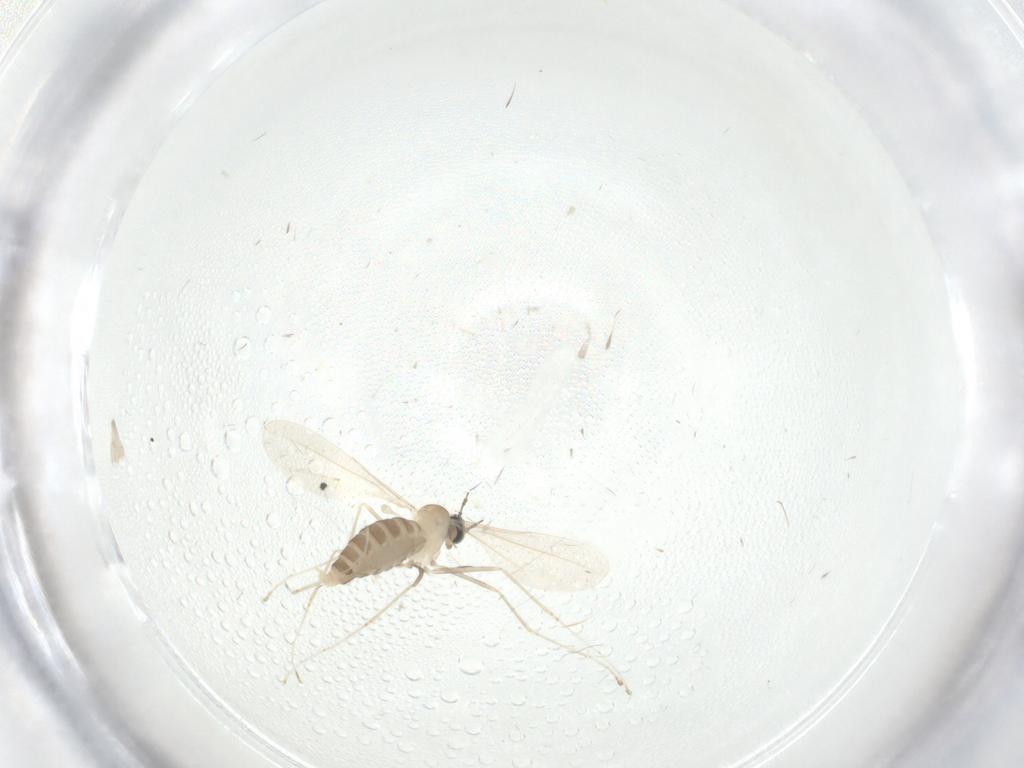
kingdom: Animalia
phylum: Arthropoda
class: Insecta
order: Diptera
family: Cecidomyiidae
